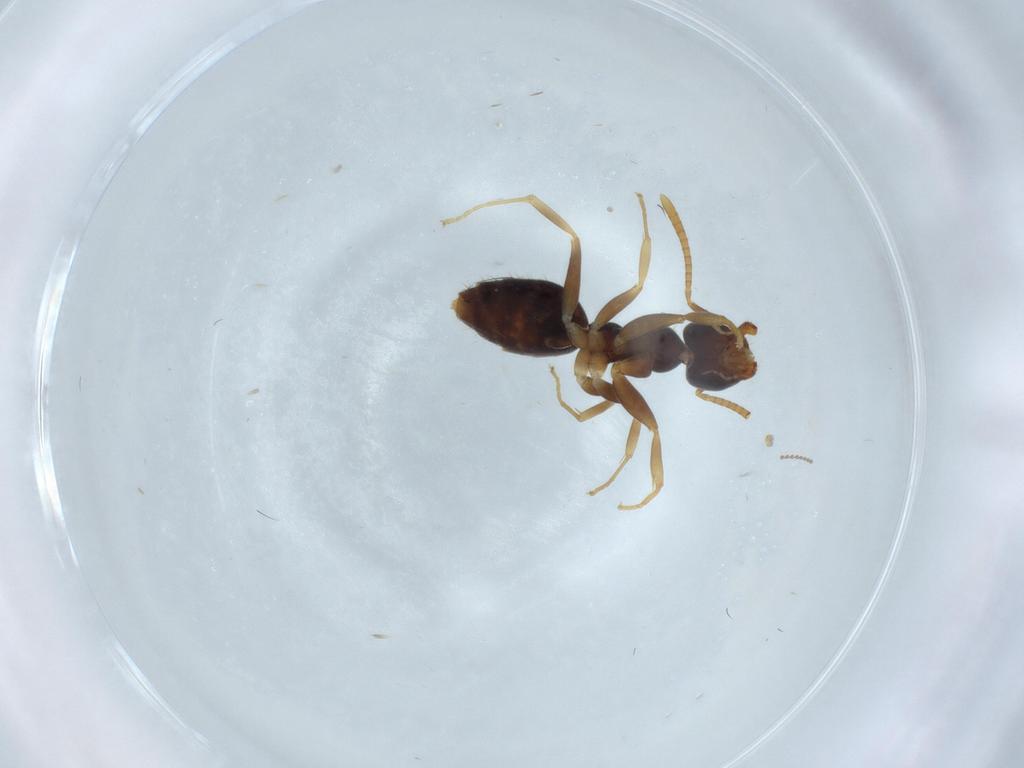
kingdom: Animalia
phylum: Arthropoda
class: Insecta
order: Hymenoptera
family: Formicidae
